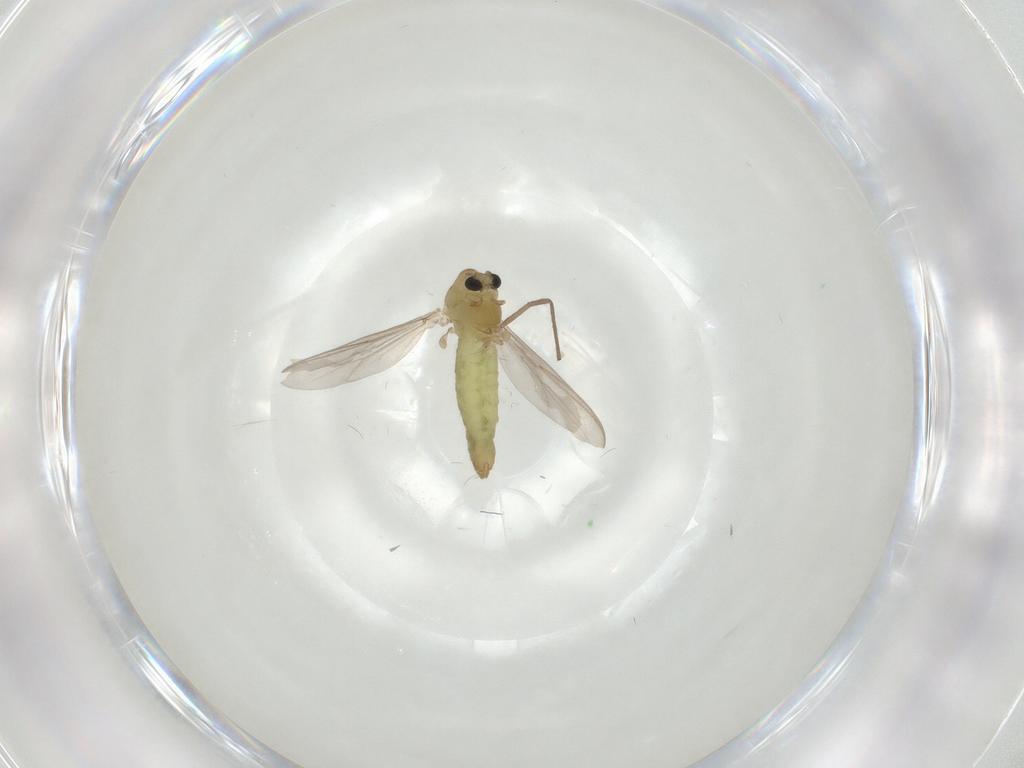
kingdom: Animalia
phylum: Arthropoda
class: Insecta
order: Diptera
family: Chironomidae
